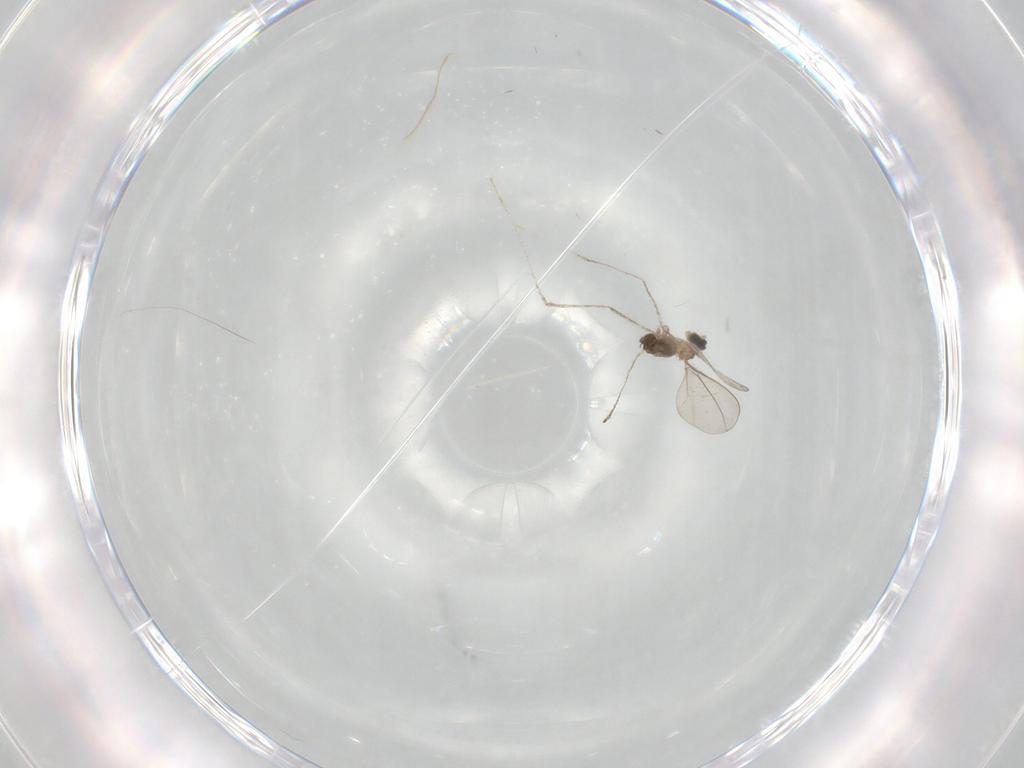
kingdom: Animalia
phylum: Arthropoda
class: Insecta
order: Diptera
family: Cecidomyiidae
